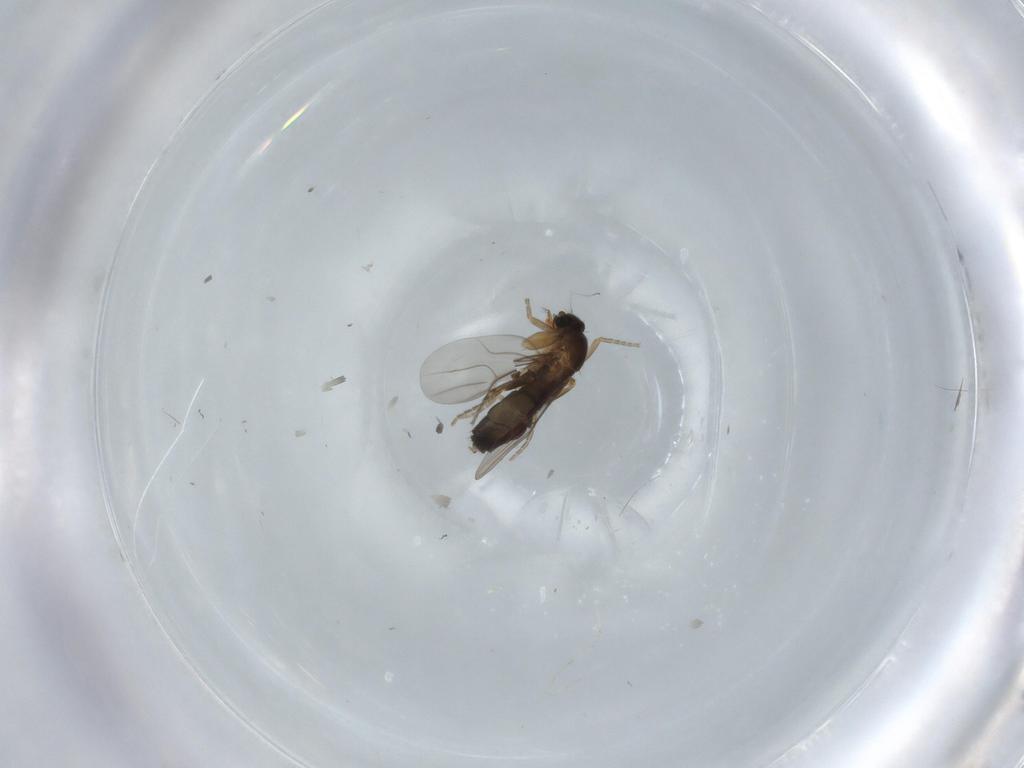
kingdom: Animalia
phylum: Arthropoda
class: Insecta
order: Diptera
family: Phoridae
